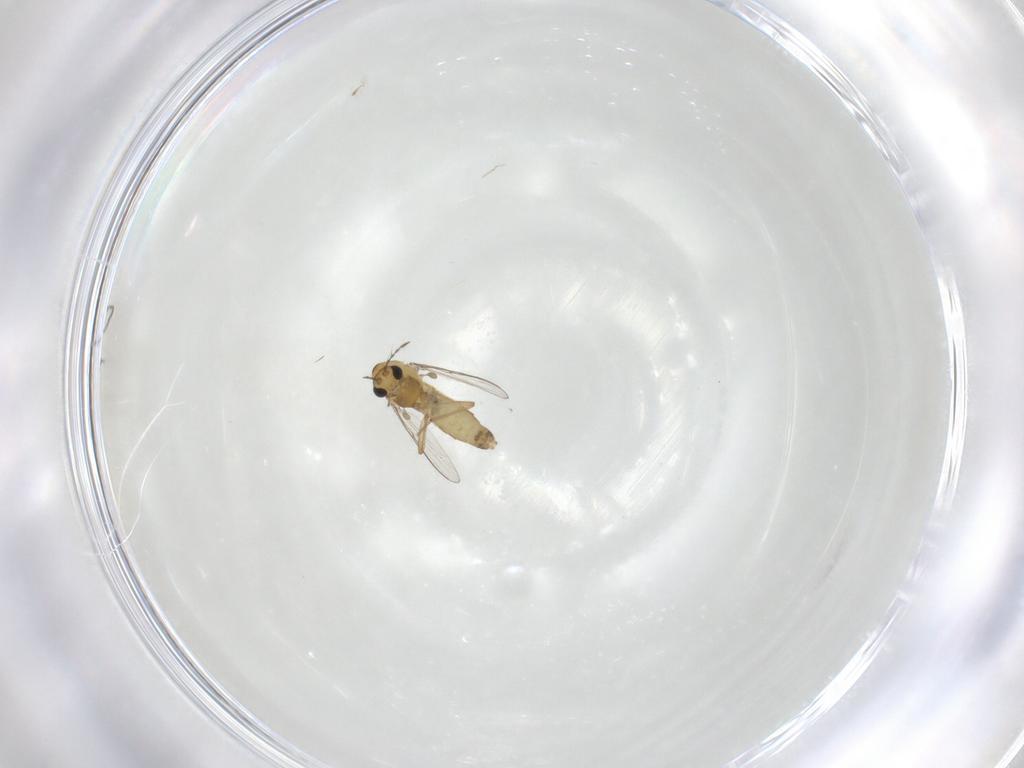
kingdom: Animalia
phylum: Arthropoda
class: Insecta
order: Diptera
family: Chironomidae
